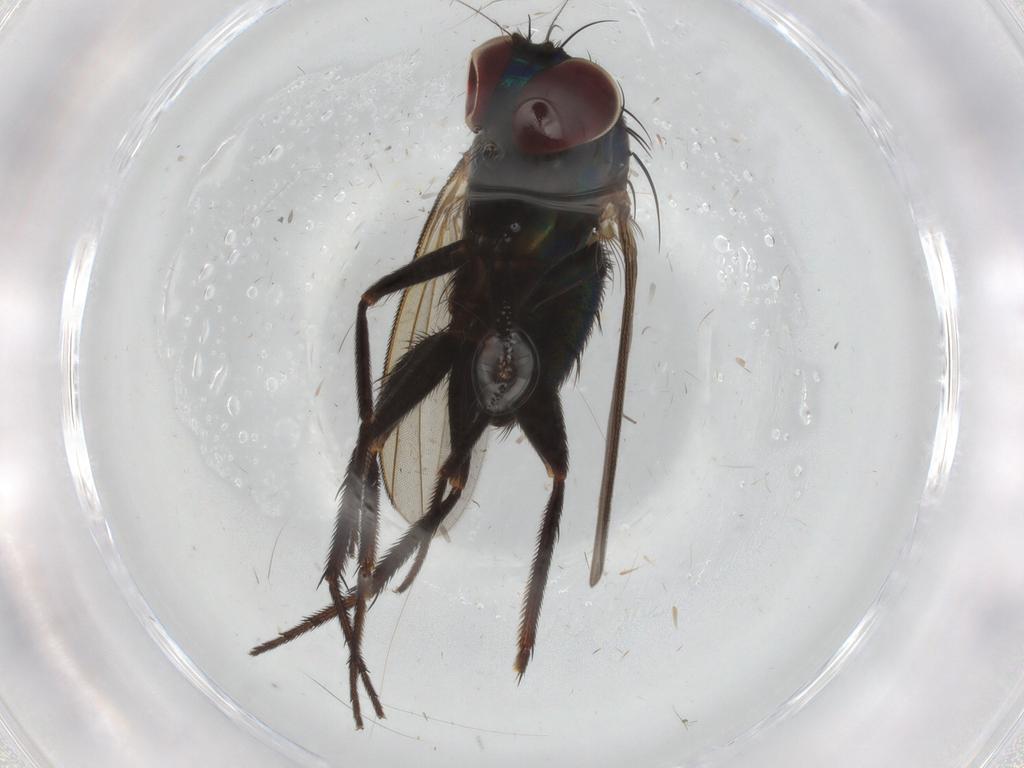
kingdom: Animalia
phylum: Arthropoda
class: Insecta
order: Diptera
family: Dolichopodidae
